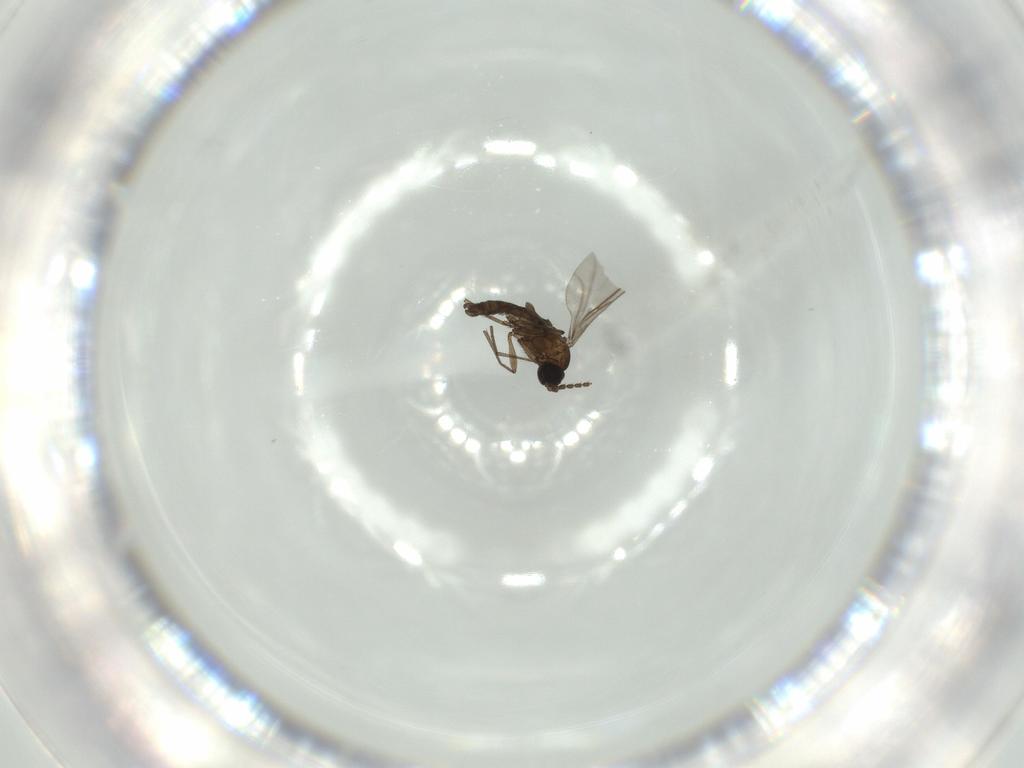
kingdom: Animalia
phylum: Arthropoda
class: Insecta
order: Diptera
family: Sciaridae
